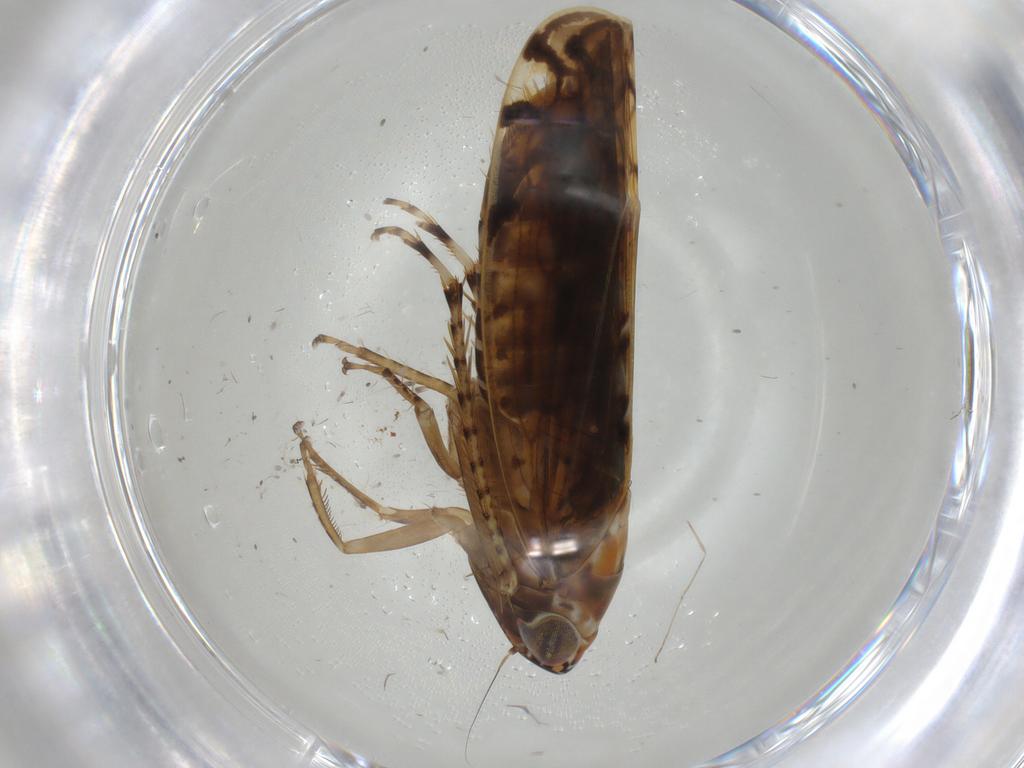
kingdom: Animalia
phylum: Arthropoda
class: Insecta
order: Hemiptera
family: Cicadellidae
